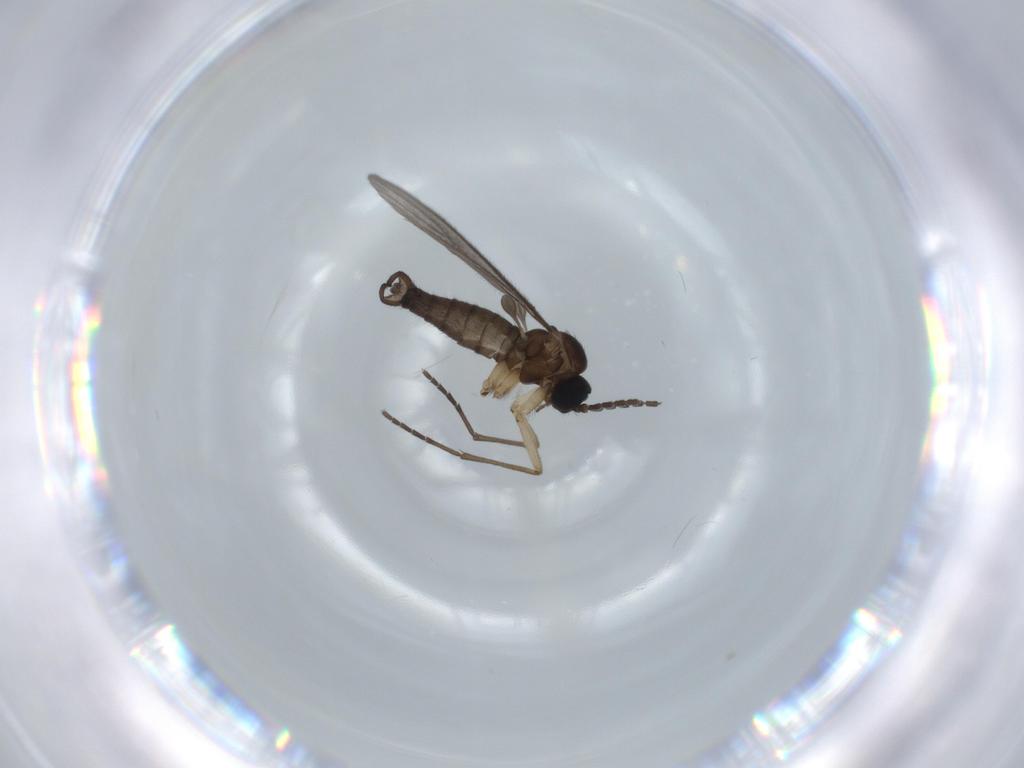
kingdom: Animalia
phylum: Arthropoda
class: Insecta
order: Diptera
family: Sciaridae
